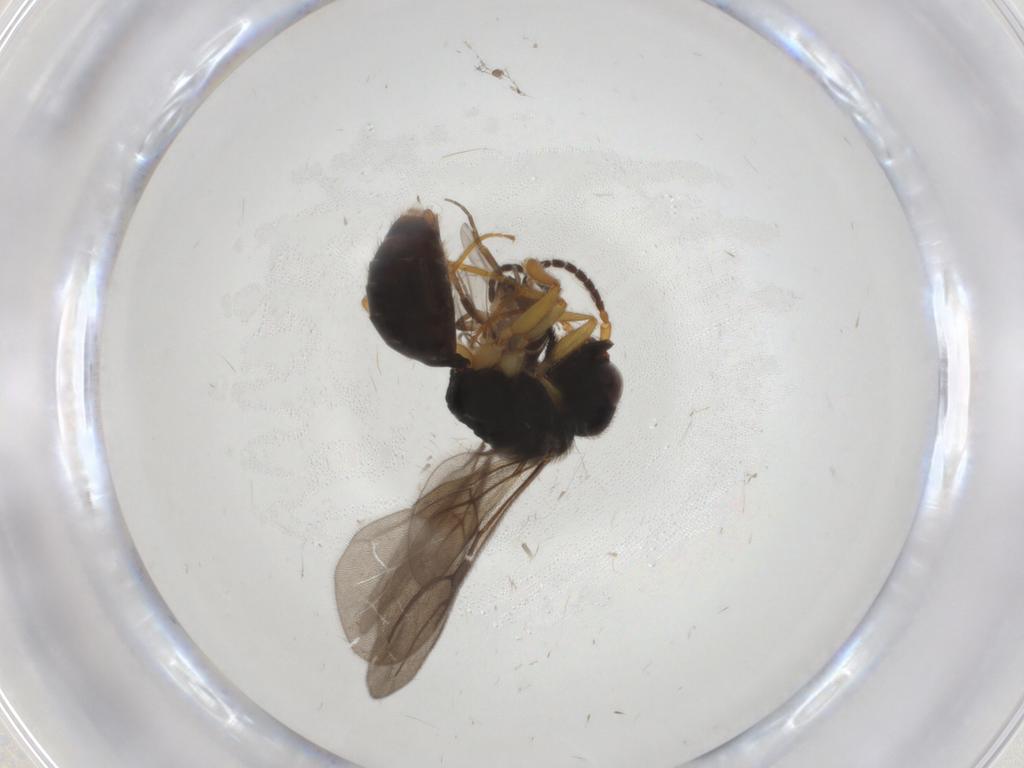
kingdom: Animalia
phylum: Arthropoda
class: Insecta
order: Hymenoptera
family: Bethylidae
